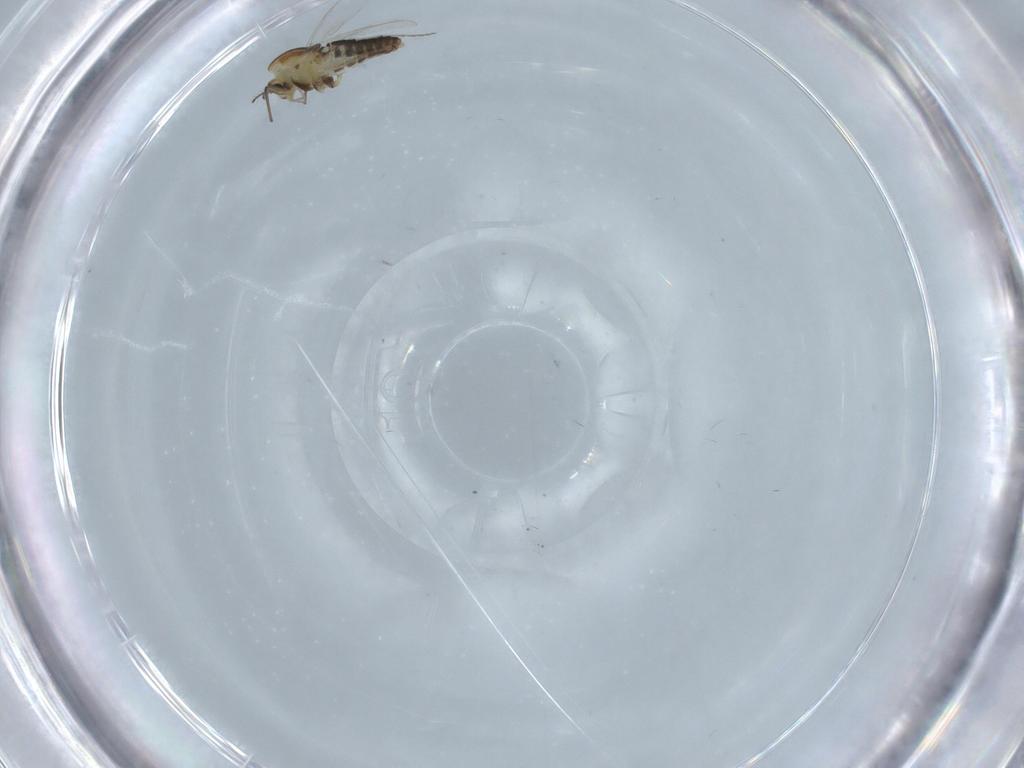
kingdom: Animalia
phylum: Arthropoda
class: Insecta
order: Diptera
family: Chironomidae
